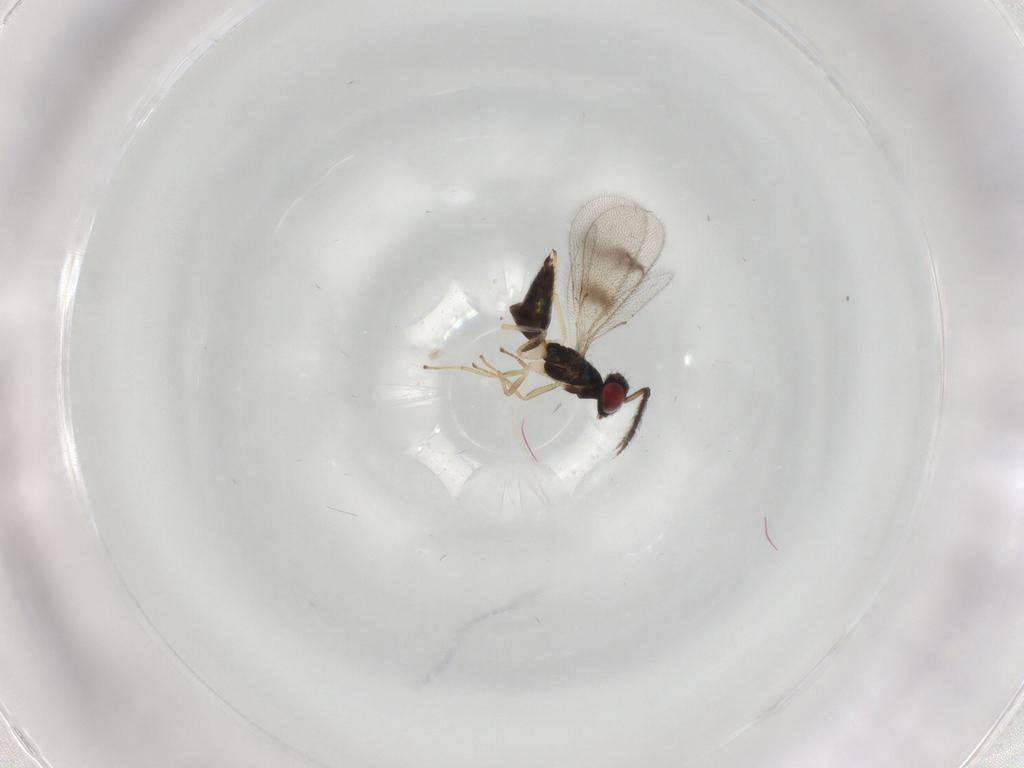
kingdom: Animalia
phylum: Arthropoda
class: Insecta
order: Hymenoptera
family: Eulophidae
